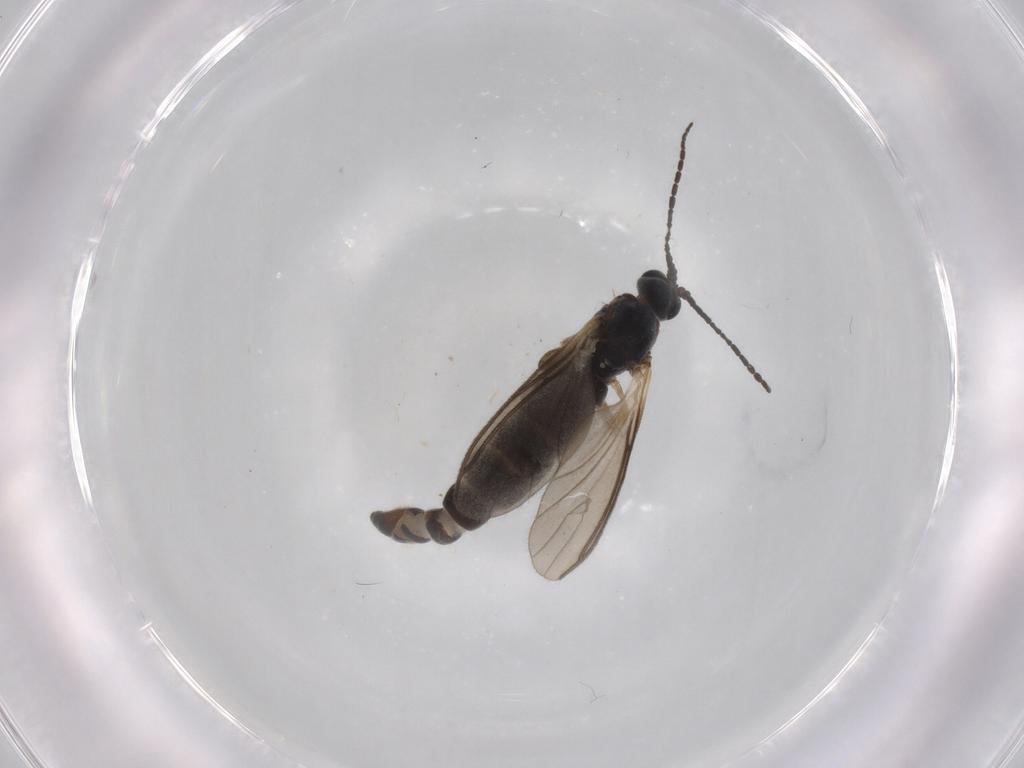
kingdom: Animalia
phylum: Arthropoda
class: Insecta
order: Diptera
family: Sciaridae
